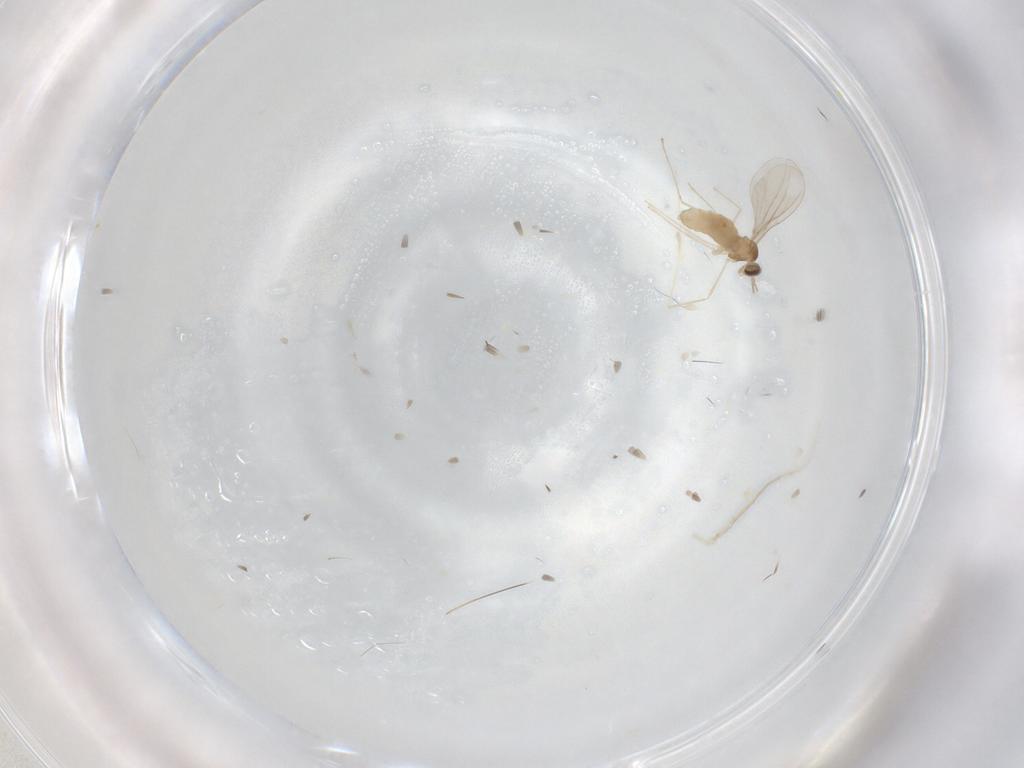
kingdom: Animalia
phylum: Arthropoda
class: Insecta
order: Diptera
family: Cecidomyiidae
